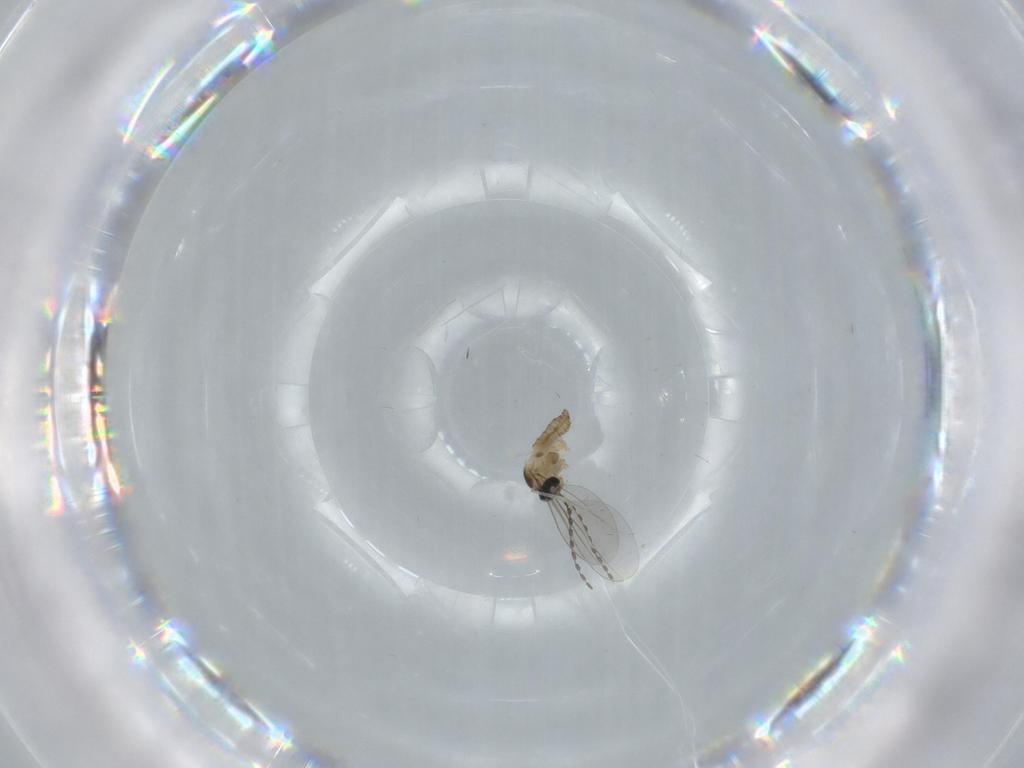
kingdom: Animalia
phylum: Arthropoda
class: Insecta
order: Diptera
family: Cecidomyiidae
